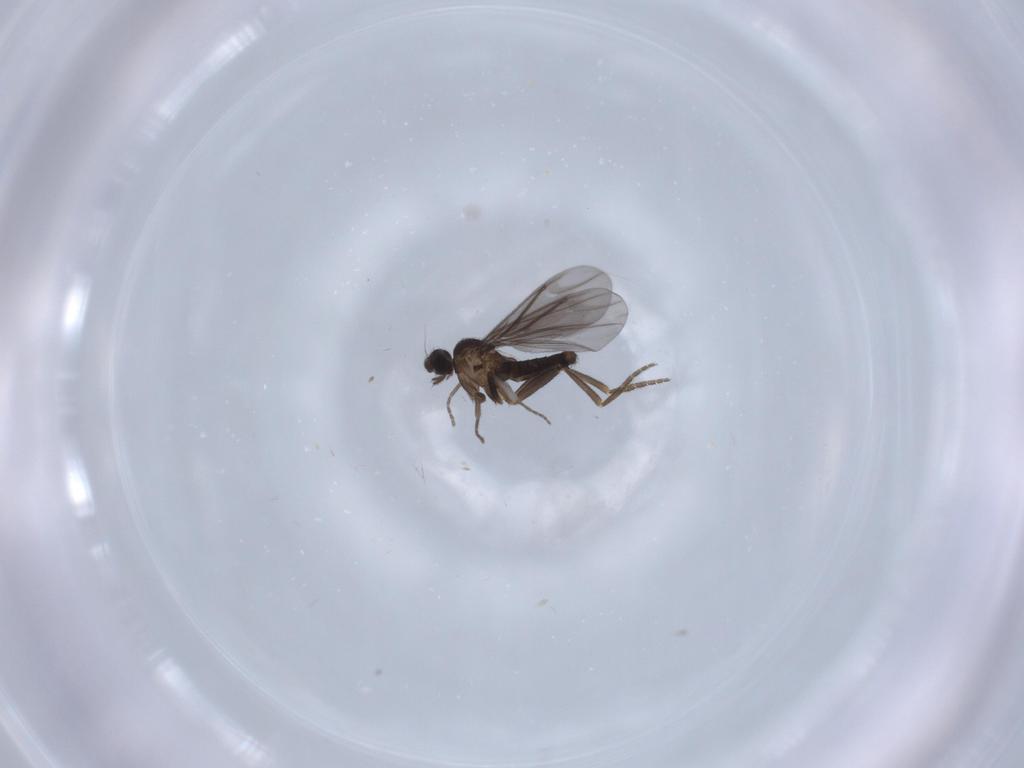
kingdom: Animalia
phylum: Arthropoda
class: Insecta
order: Diptera
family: Phoridae
